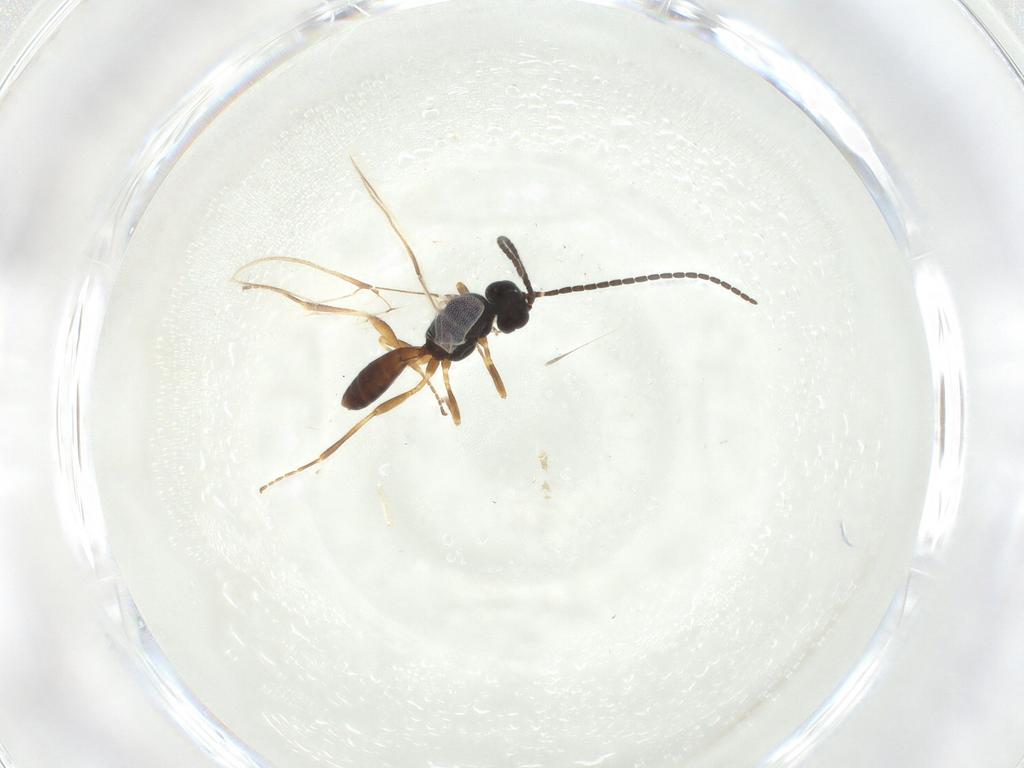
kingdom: Animalia
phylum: Arthropoda
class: Insecta
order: Hymenoptera
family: Braconidae
